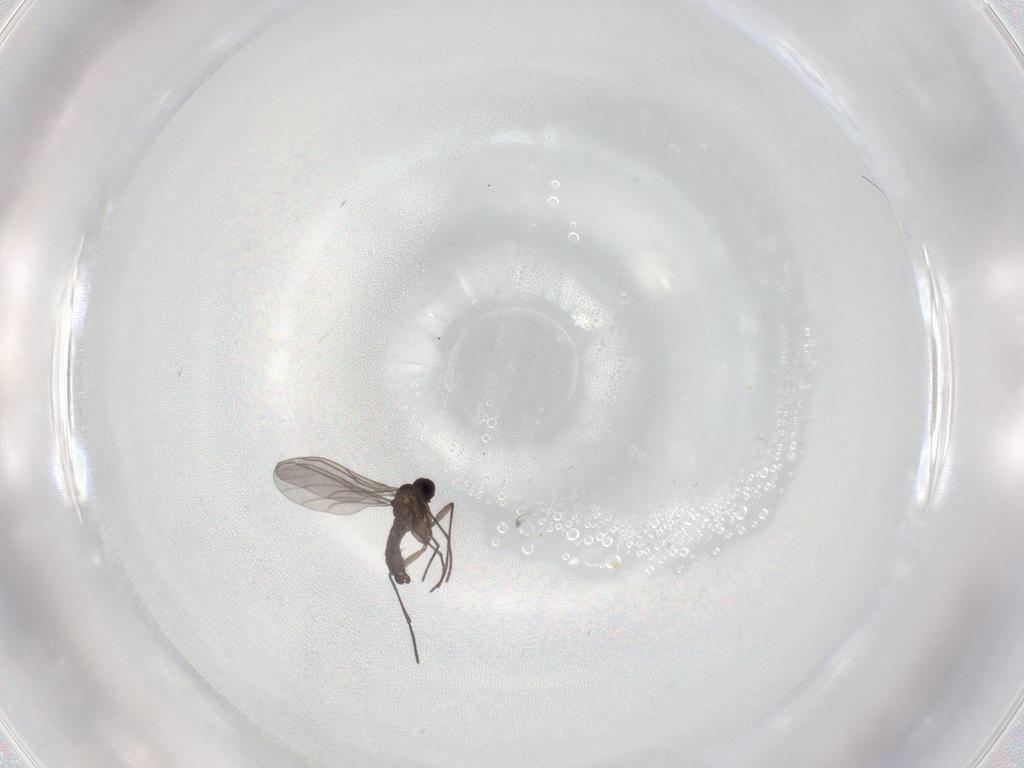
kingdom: Animalia
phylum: Arthropoda
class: Insecta
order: Diptera
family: Cecidomyiidae
